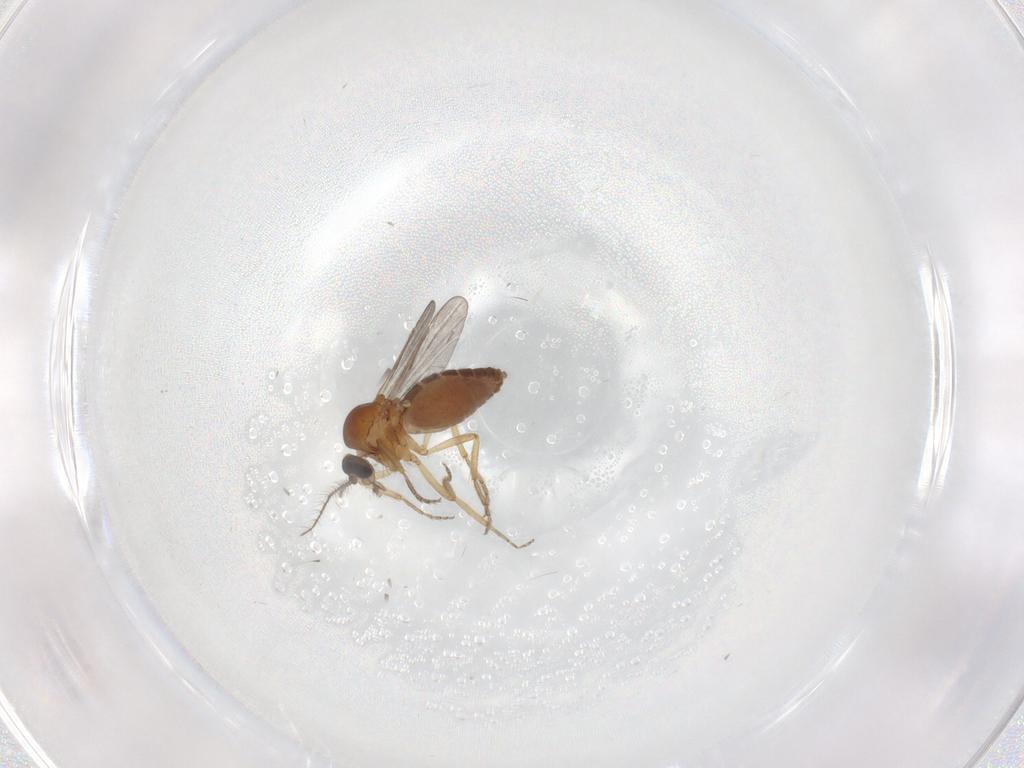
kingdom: Animalia
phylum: Arthropoda
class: Insecta
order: Diptera
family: Ceratopogonidae
